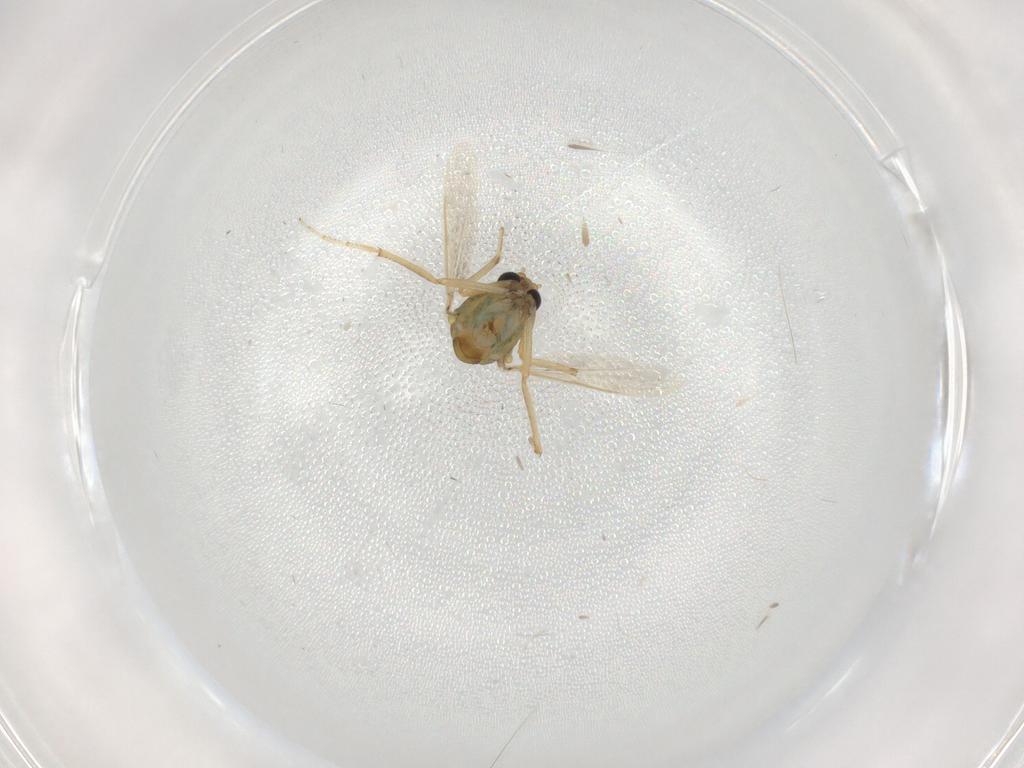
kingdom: Animalia
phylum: Arthropoda
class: Insecta
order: Diptera
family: Ceratopogonidae
